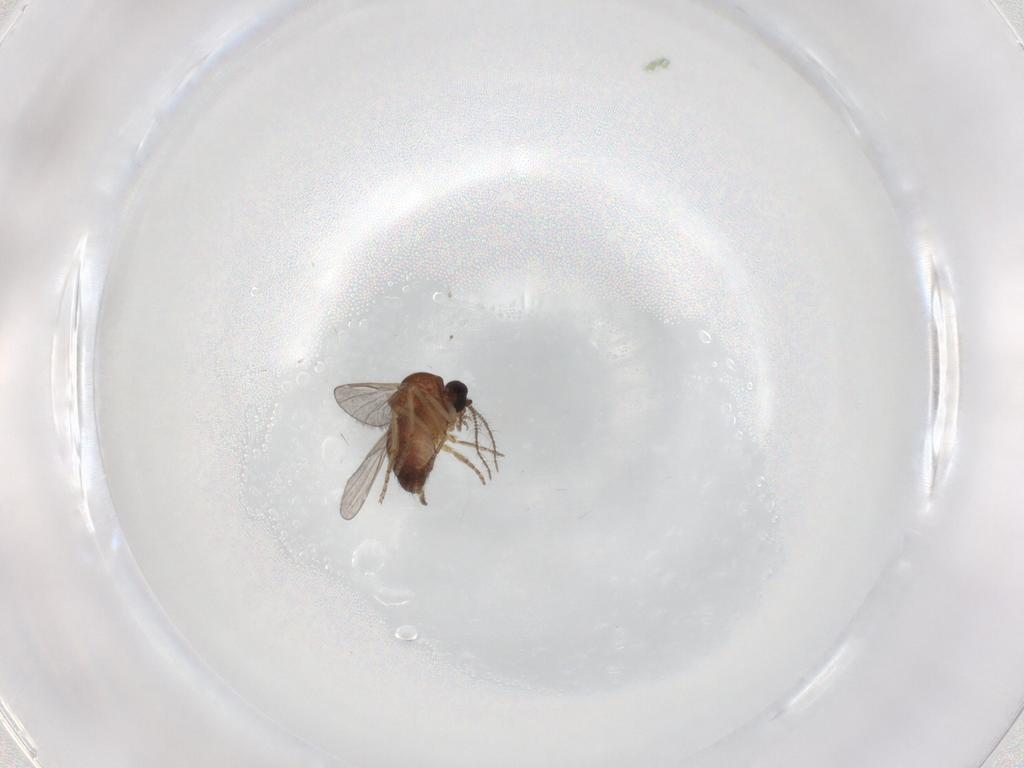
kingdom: Animalia
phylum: Arthropoda
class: Insecta
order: Diptera
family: Ceratopogonidae
